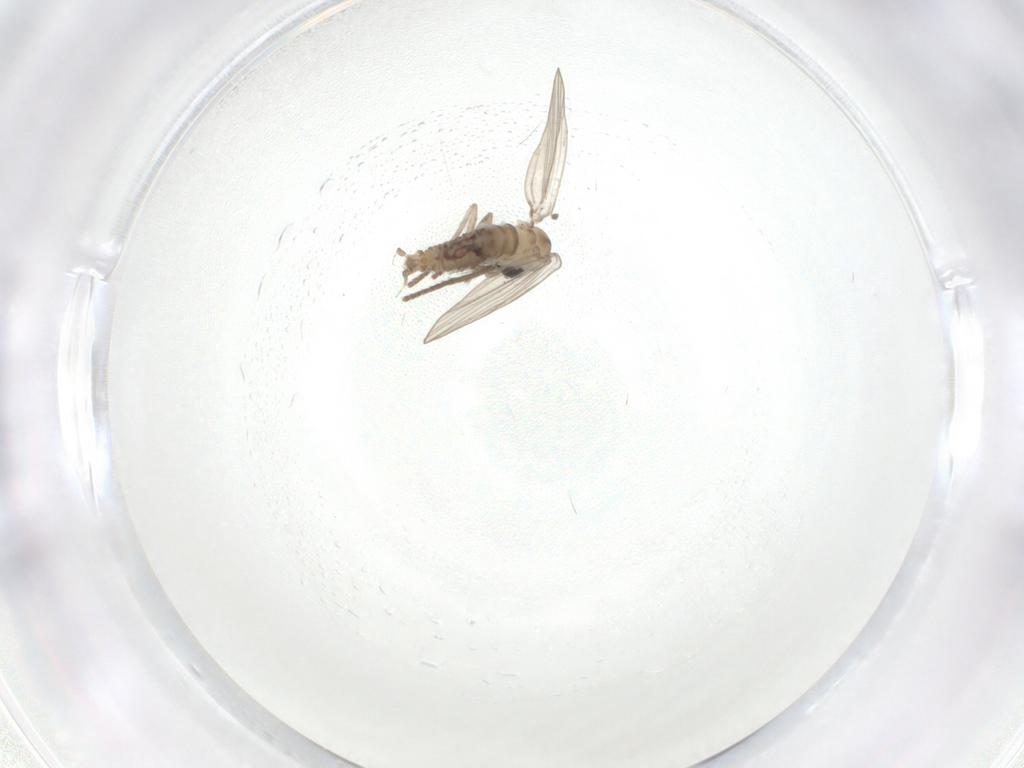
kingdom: Animalia
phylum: Arthropoda
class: Insecta
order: Diptera
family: Psychodidae
